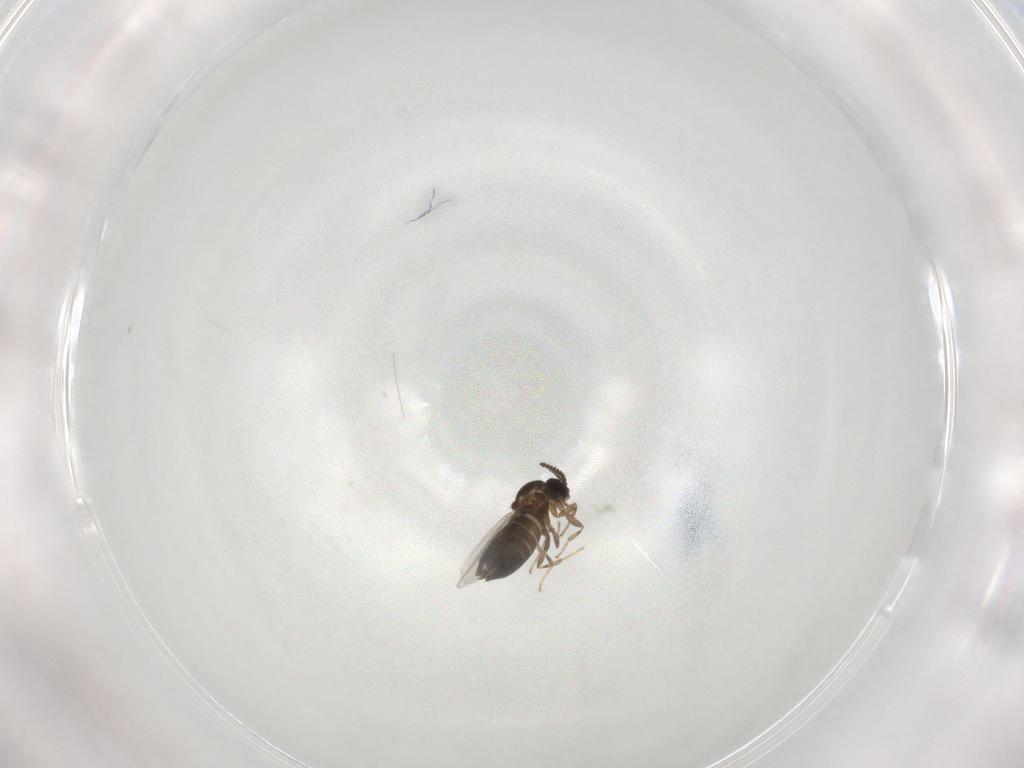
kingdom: Animalia
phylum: Arthropoda
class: Insecta
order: Diptera
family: Scatopsidae
